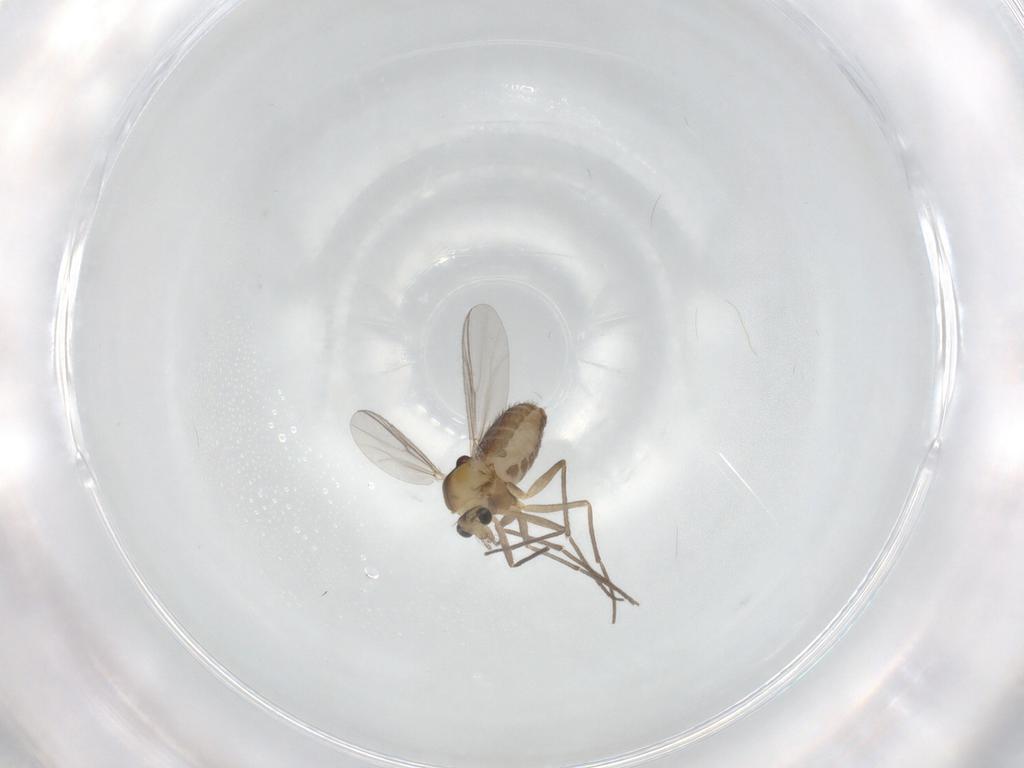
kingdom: Animalia
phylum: Arthropoda
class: Insecta
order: Diptera
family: Chironomidae
